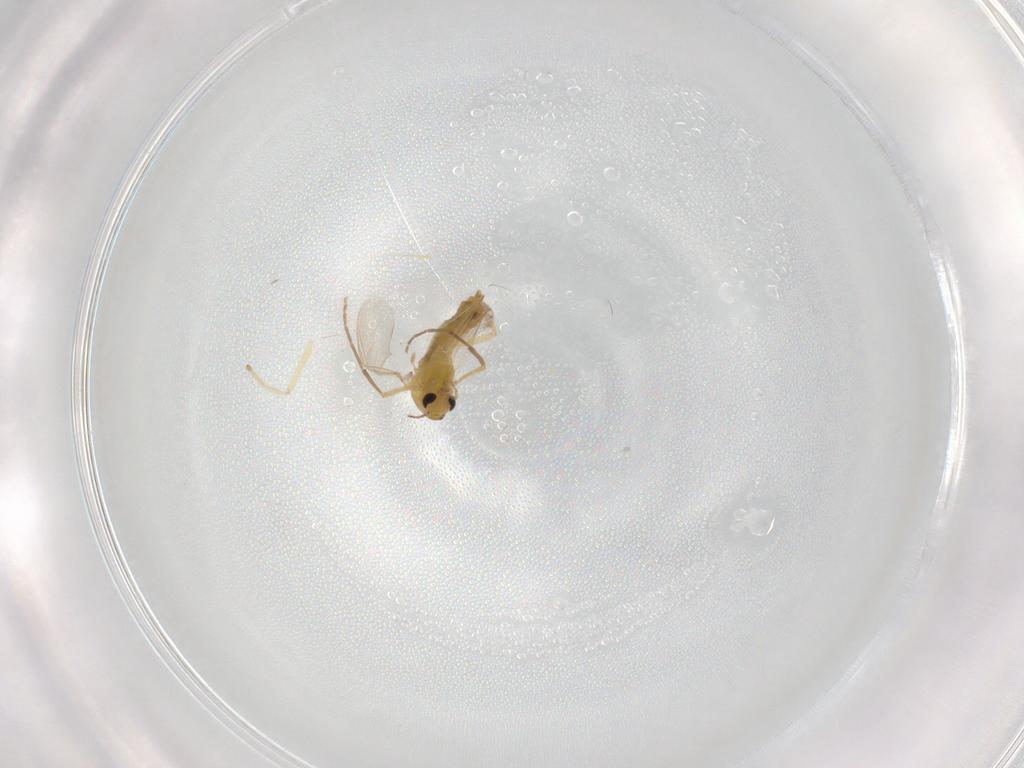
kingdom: Animalia
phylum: Arthropoda
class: Insecta
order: Diptera
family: Chironomidae
